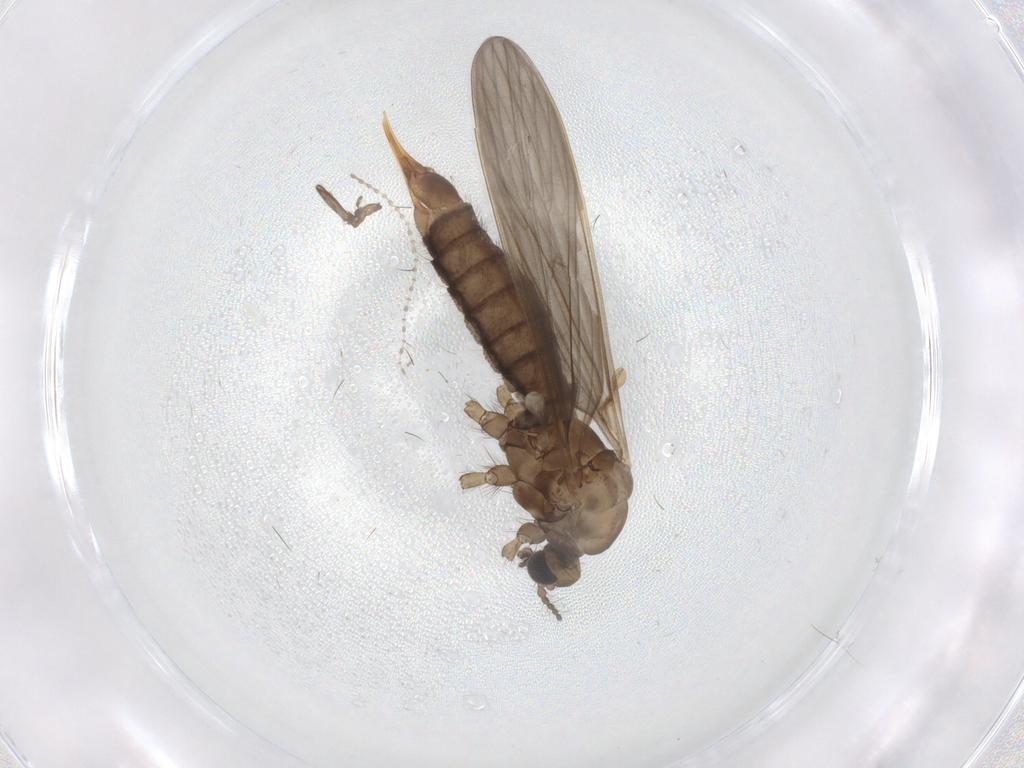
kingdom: Animalia
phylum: Arthropoda
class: Insecta
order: Diptera
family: Limoniidae
